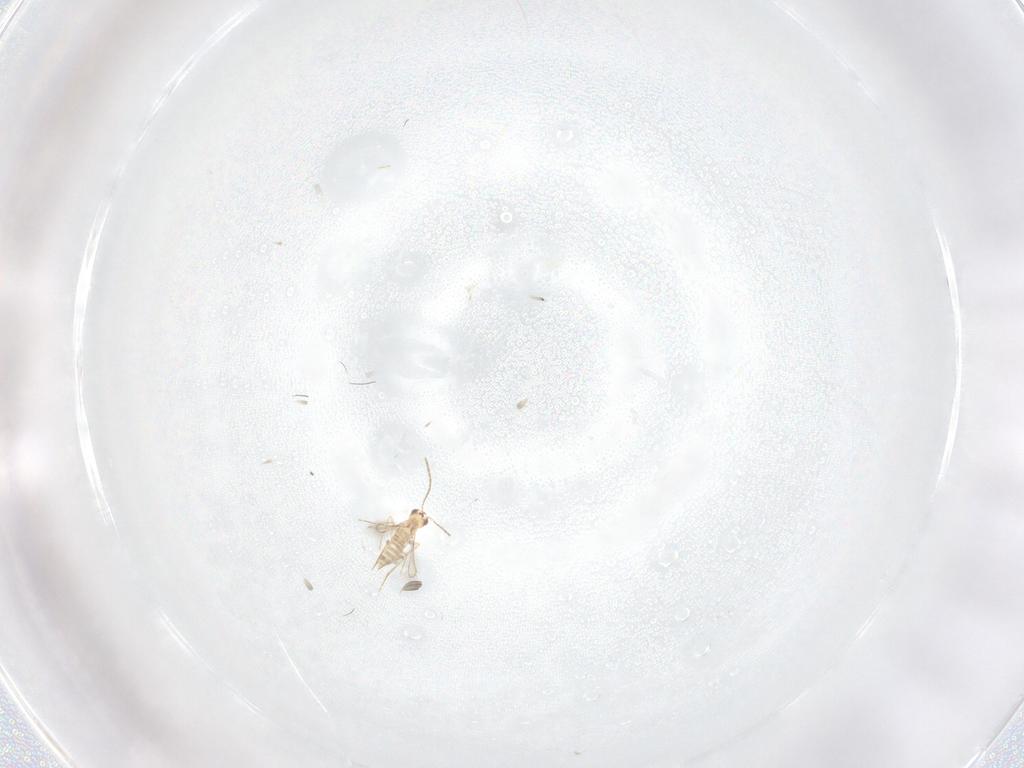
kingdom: Animalia
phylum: Arthropoda
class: Insecta
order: Hymenoptera
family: Mymaridae
